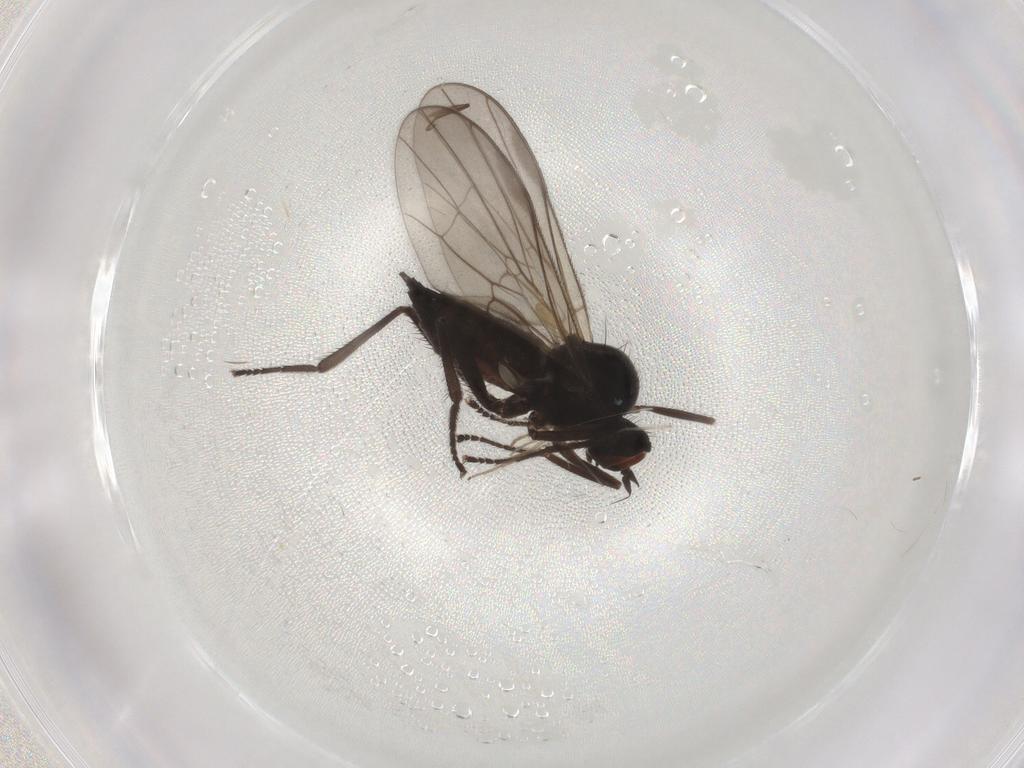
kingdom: Animalia
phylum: Arthropoda
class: Insecta
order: Diptera
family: Hybotidae
